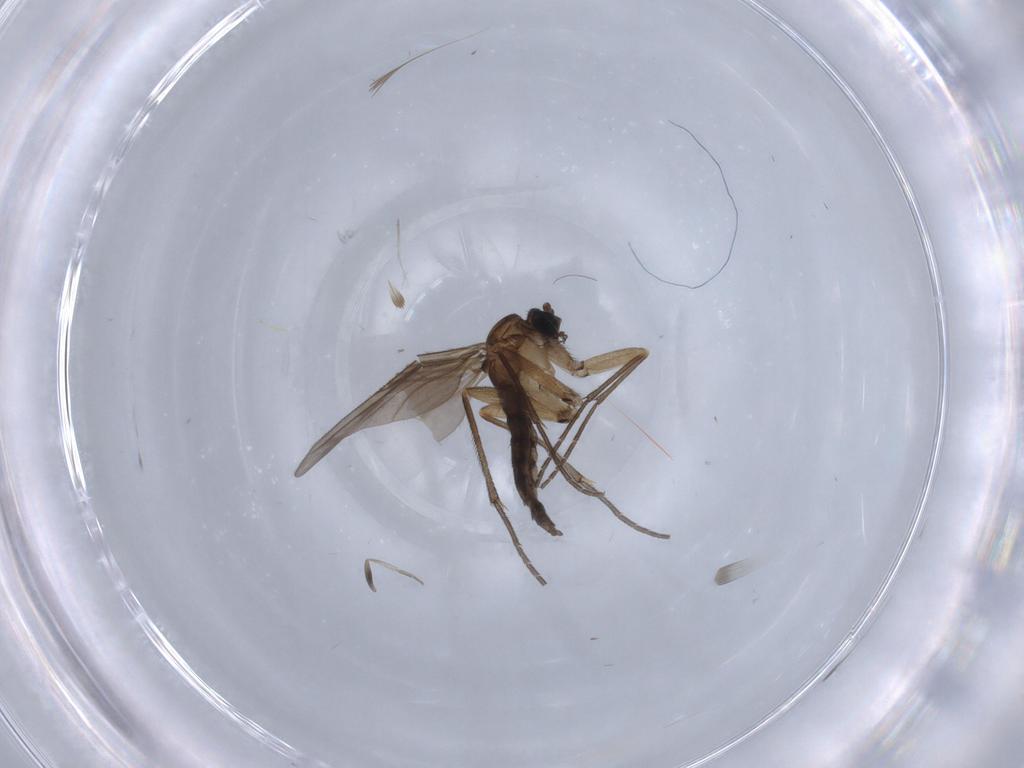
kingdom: Animalia
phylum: Arthropoda
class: Insecta
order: Diptera
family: Phoridae
